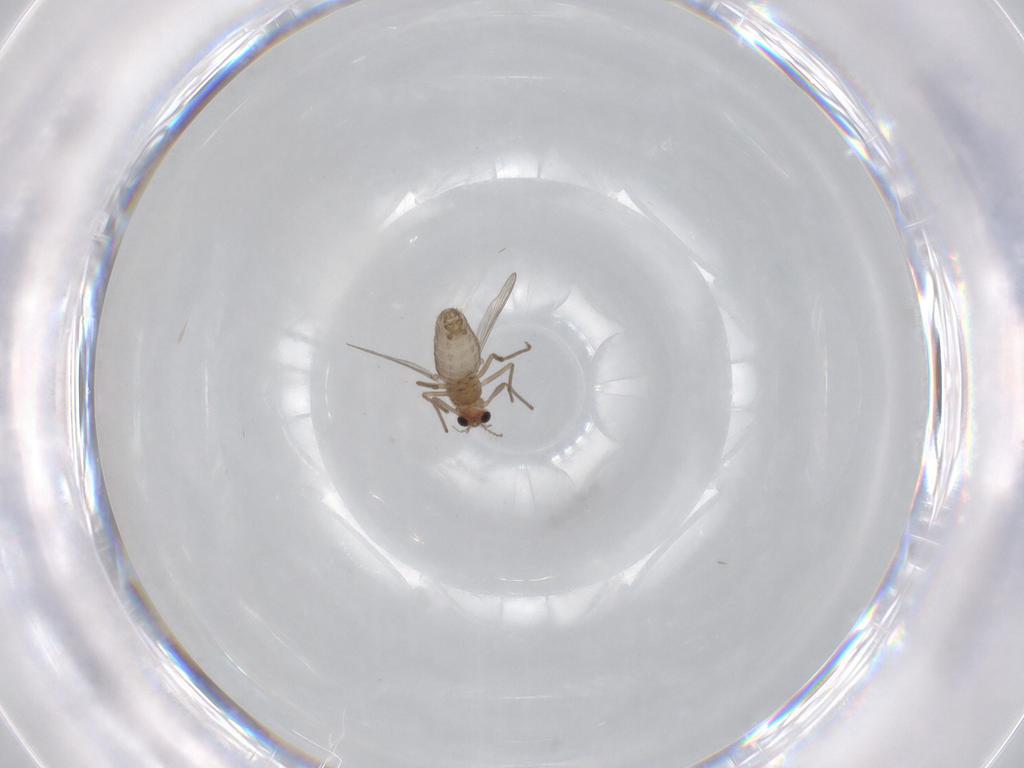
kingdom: Animalia
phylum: Arthropoda
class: Insecta
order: Diptera
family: Chironomidae
